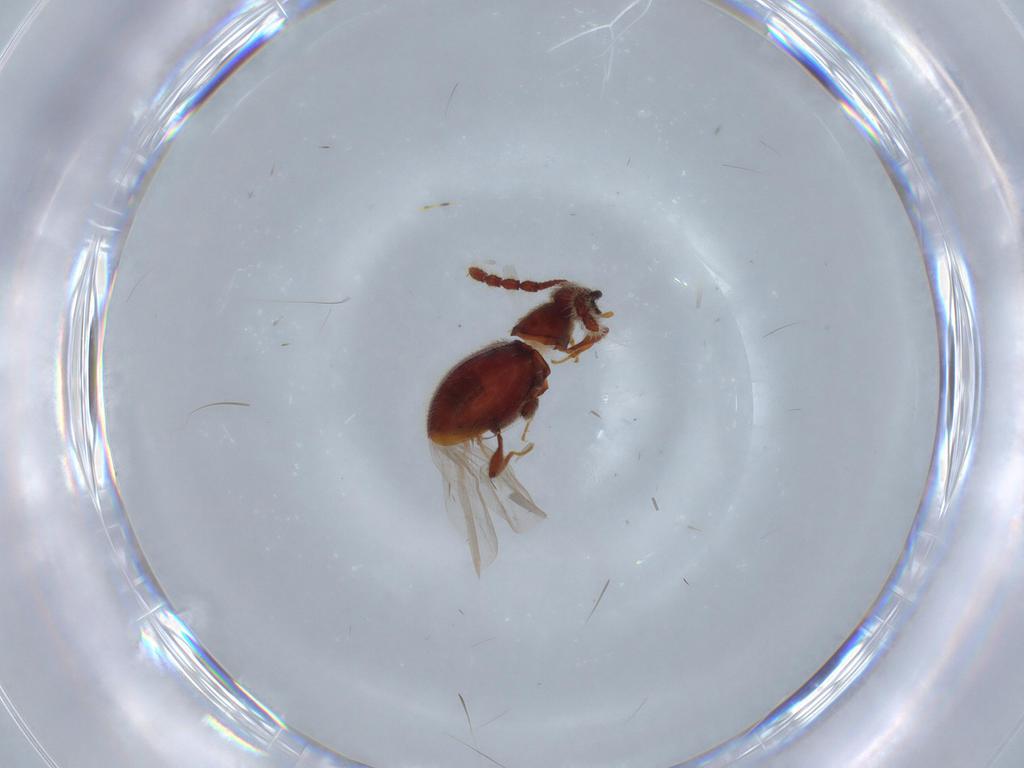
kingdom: Animalia
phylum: Arthropoda
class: Insecta
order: Coleoptera
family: Staphylinidae
